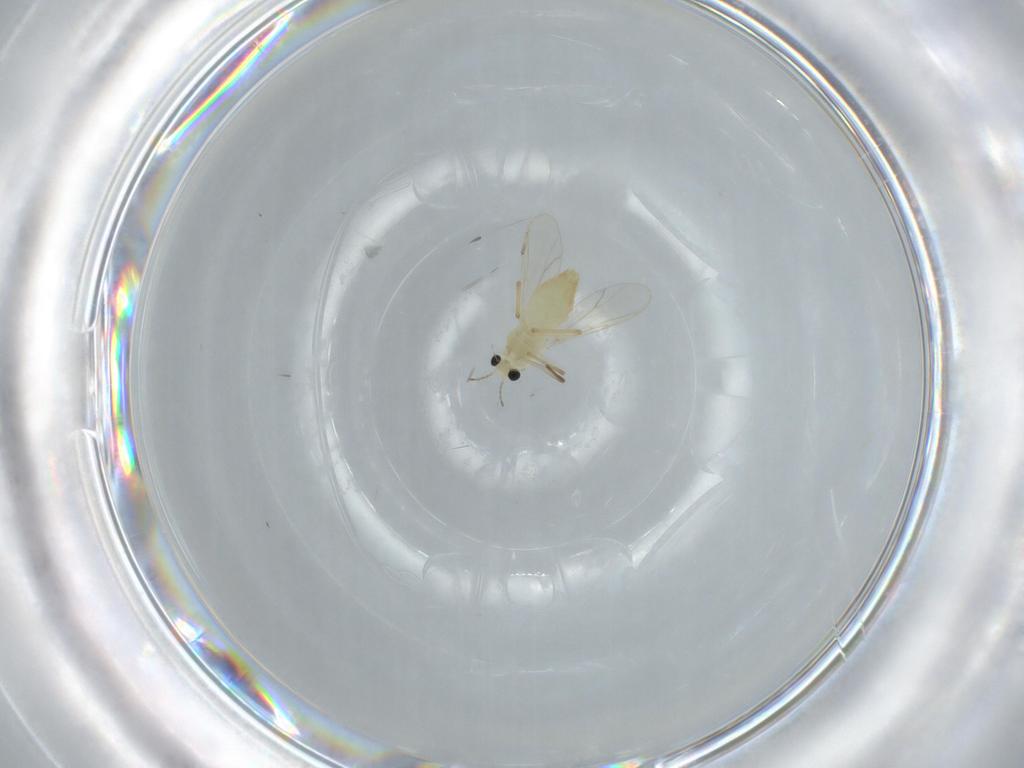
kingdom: Animalia
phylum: Arthropoda
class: Insecta
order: Diptera
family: Chironomidae
